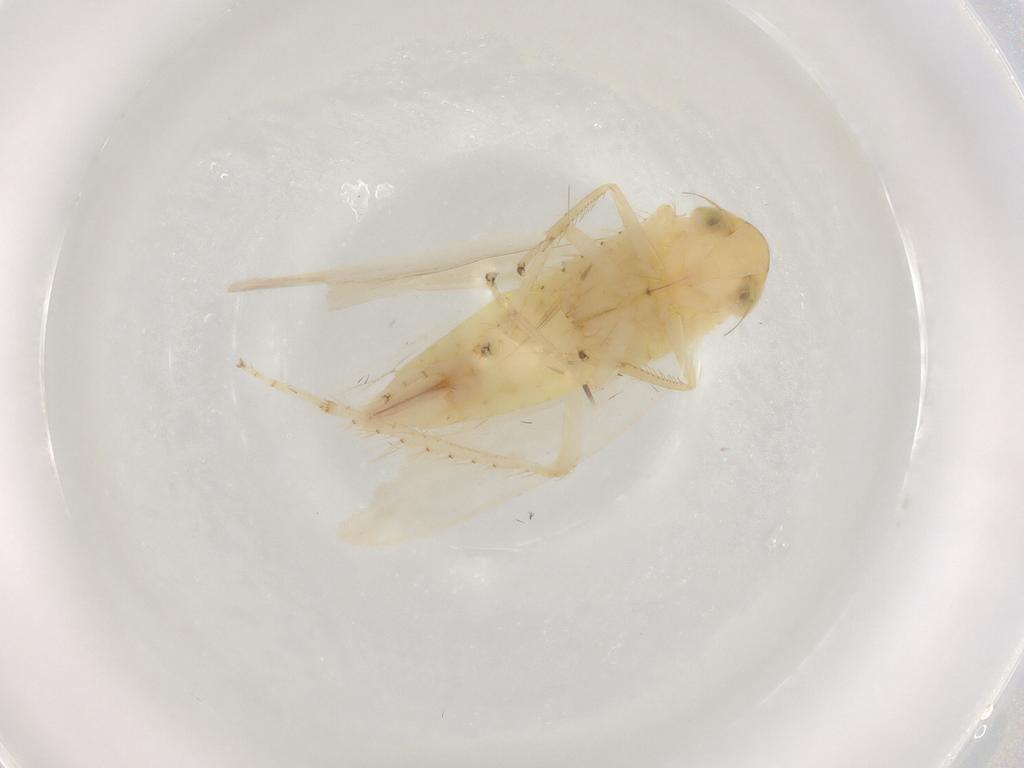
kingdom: Animalia
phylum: Arthropoda
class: Insecta
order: Hemiptera
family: Cicadellidae
